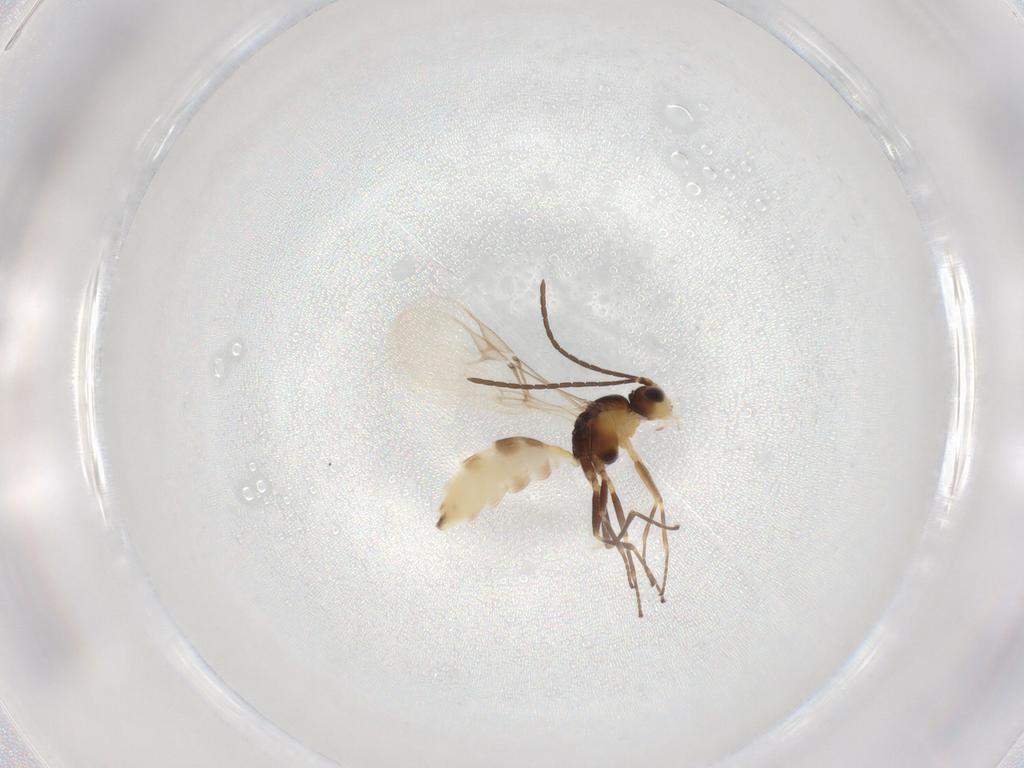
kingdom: Animalia
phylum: Arthropoda
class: Insecta
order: Hymenoptera
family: Braconidae
